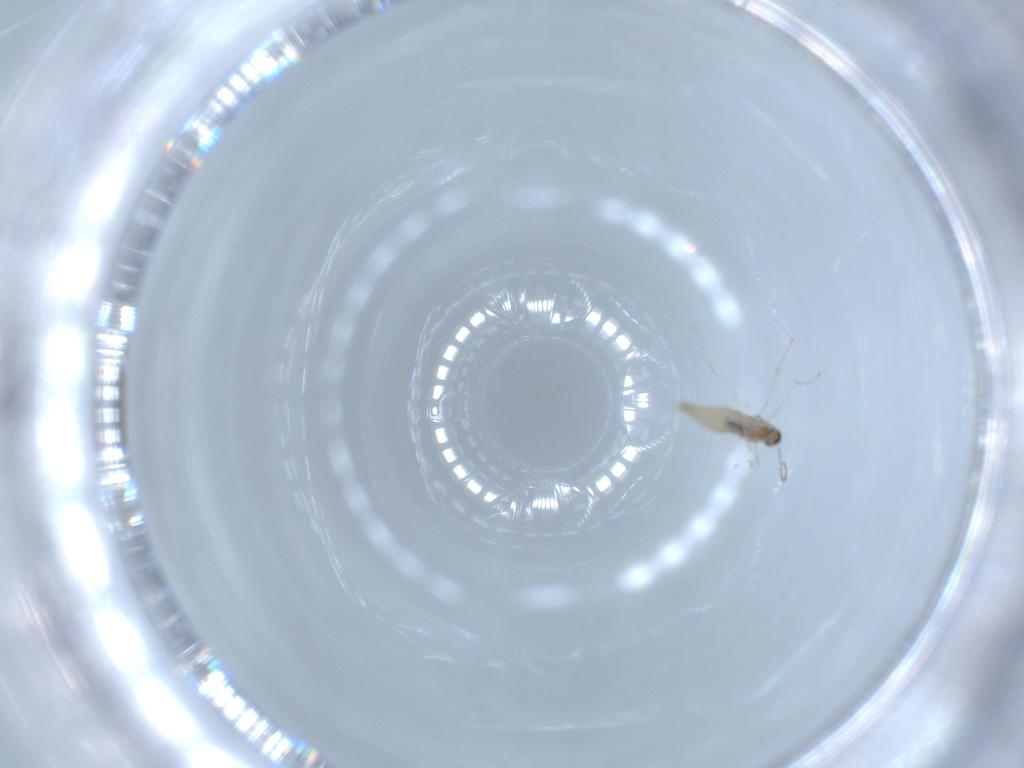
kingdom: Animalia
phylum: Arthropoda
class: Insecta
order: Diptera
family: Cecidomyiidae
